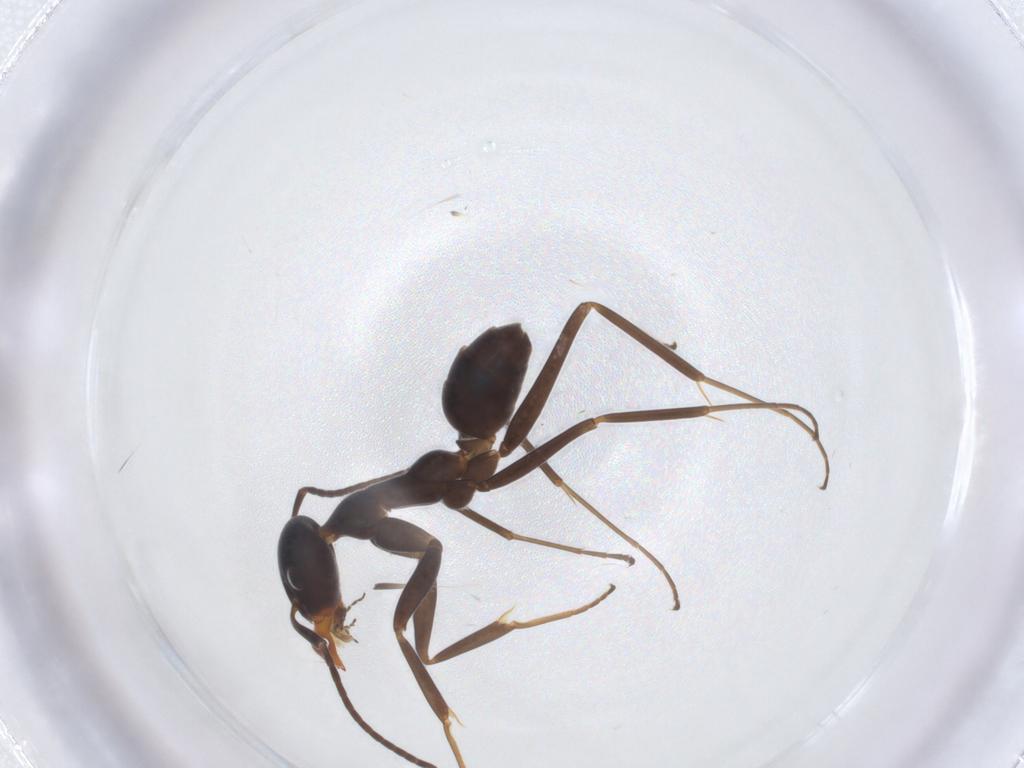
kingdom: Animalia
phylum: Arthropoda
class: Insecta
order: Hymenoptera
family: Formicidae
